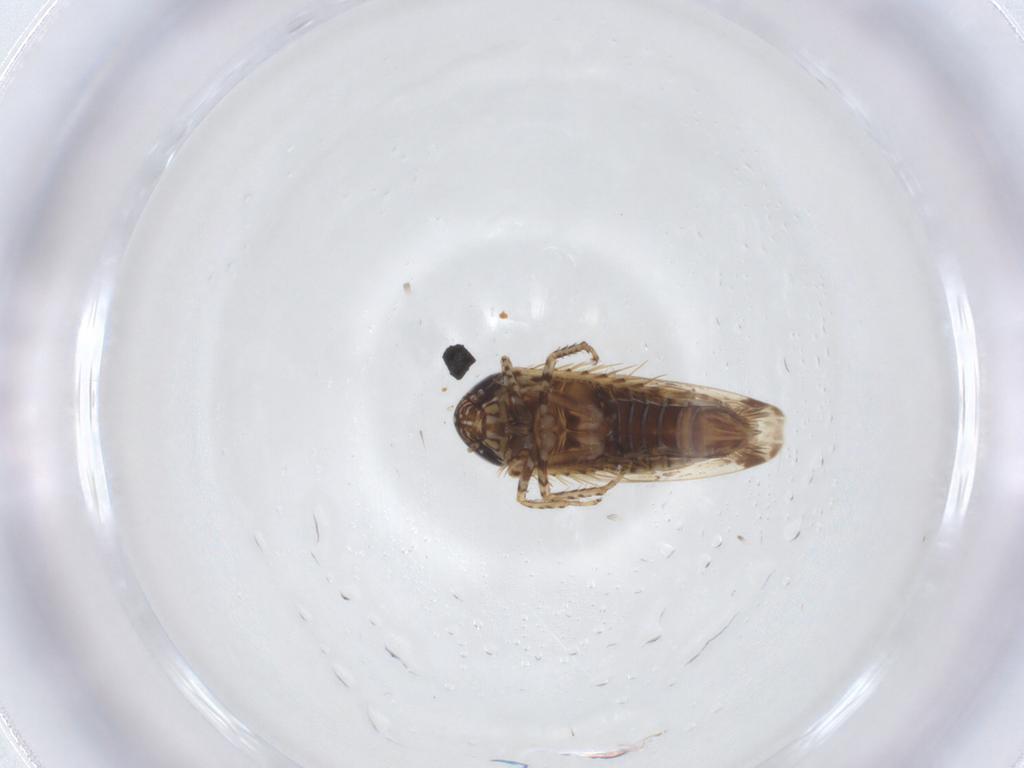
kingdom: Animalia
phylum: Arthropoda
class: Insecta
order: Hemiptera
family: Cicadellidae
